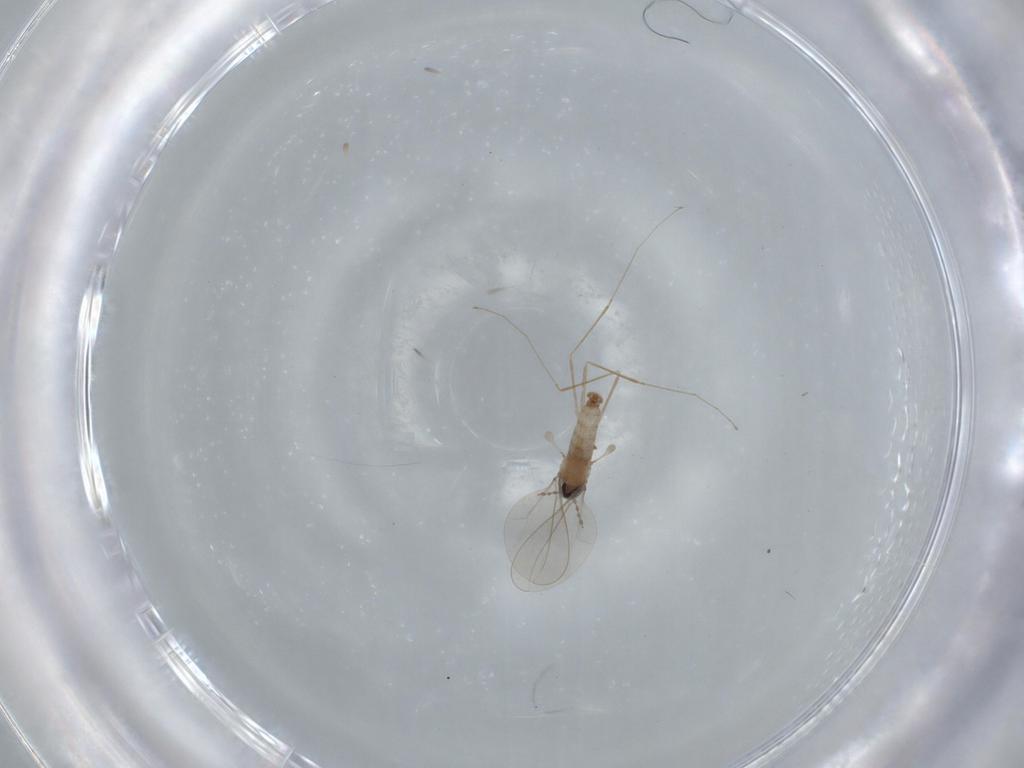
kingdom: Animalia
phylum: Arthropoda
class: Insecta
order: Diptera
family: Cecidomyiidae
